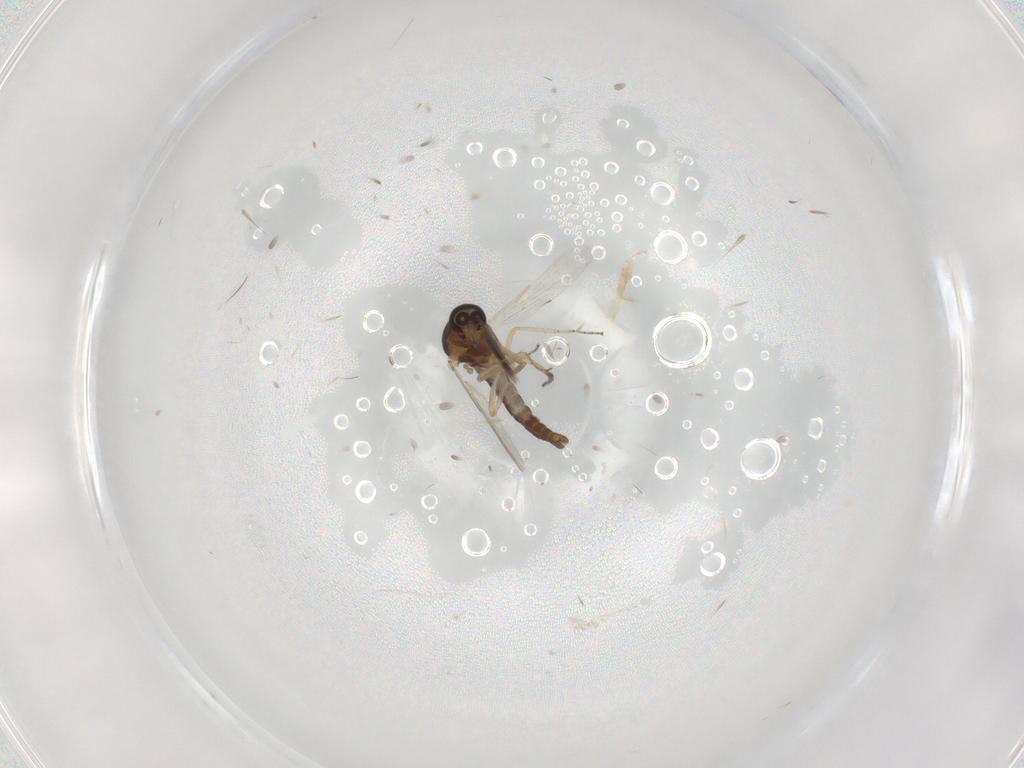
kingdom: Animalia
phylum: Arthropoda
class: Insecta
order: Diptera
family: Ceratopogonidae
